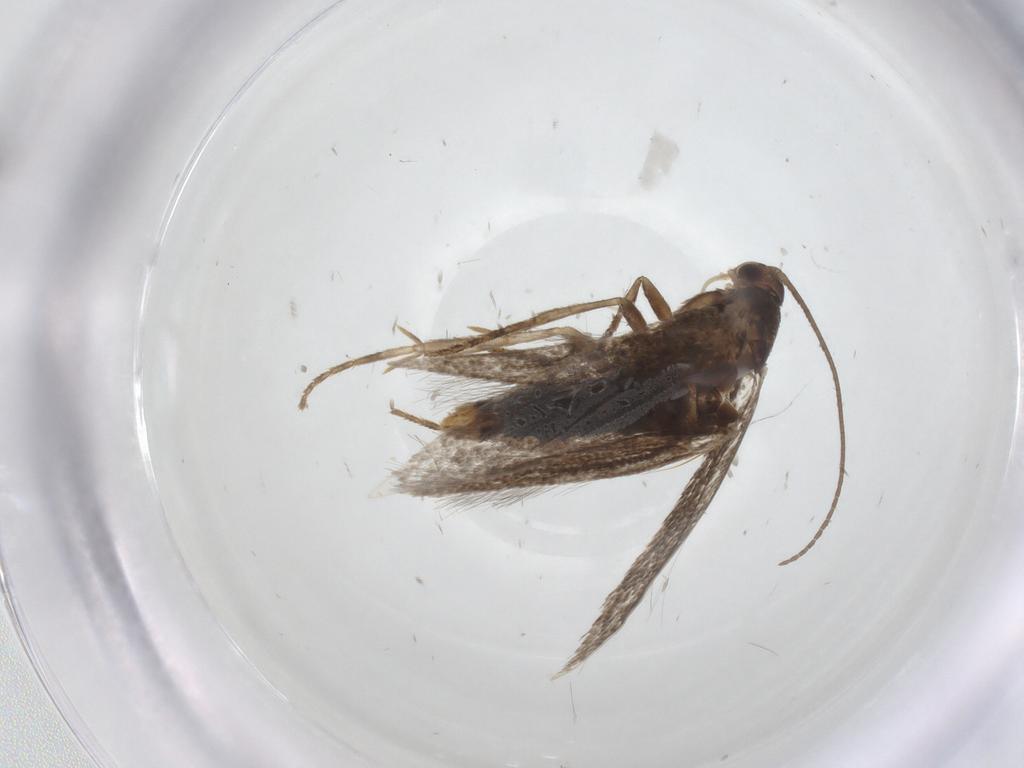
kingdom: Animalia
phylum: Arthropoda
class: Insecta
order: Lepidoptera
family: Elachistidae
